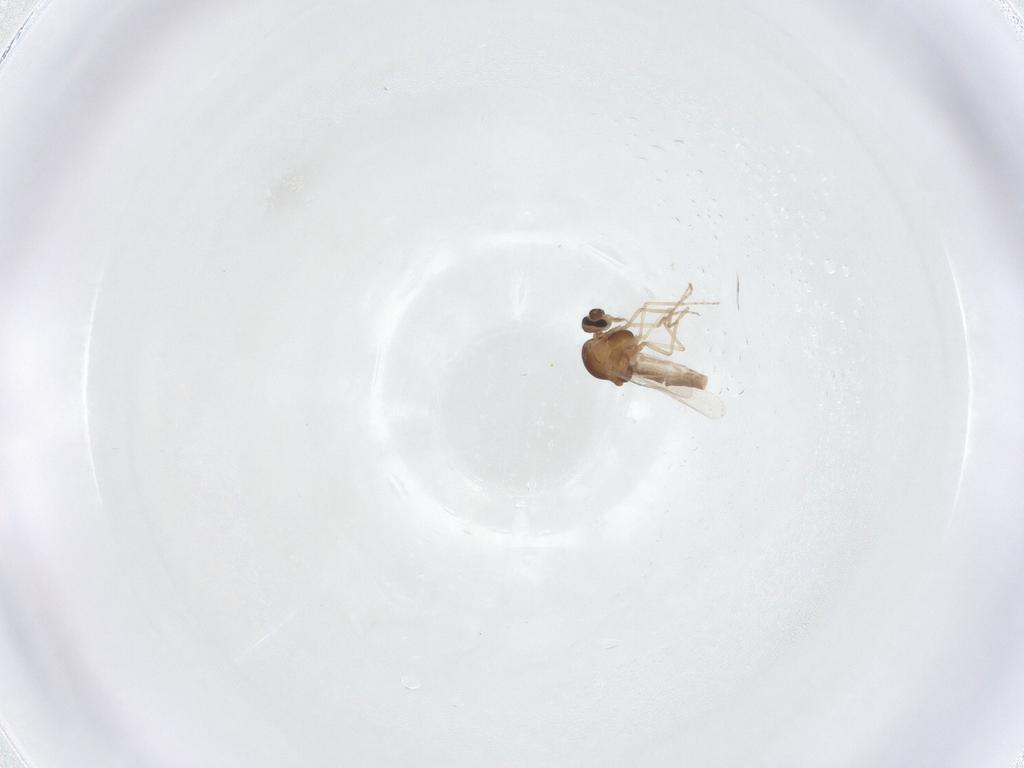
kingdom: Animalia
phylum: Arthropoda
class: Insecta
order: Diptera
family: Ceratopogonidae
